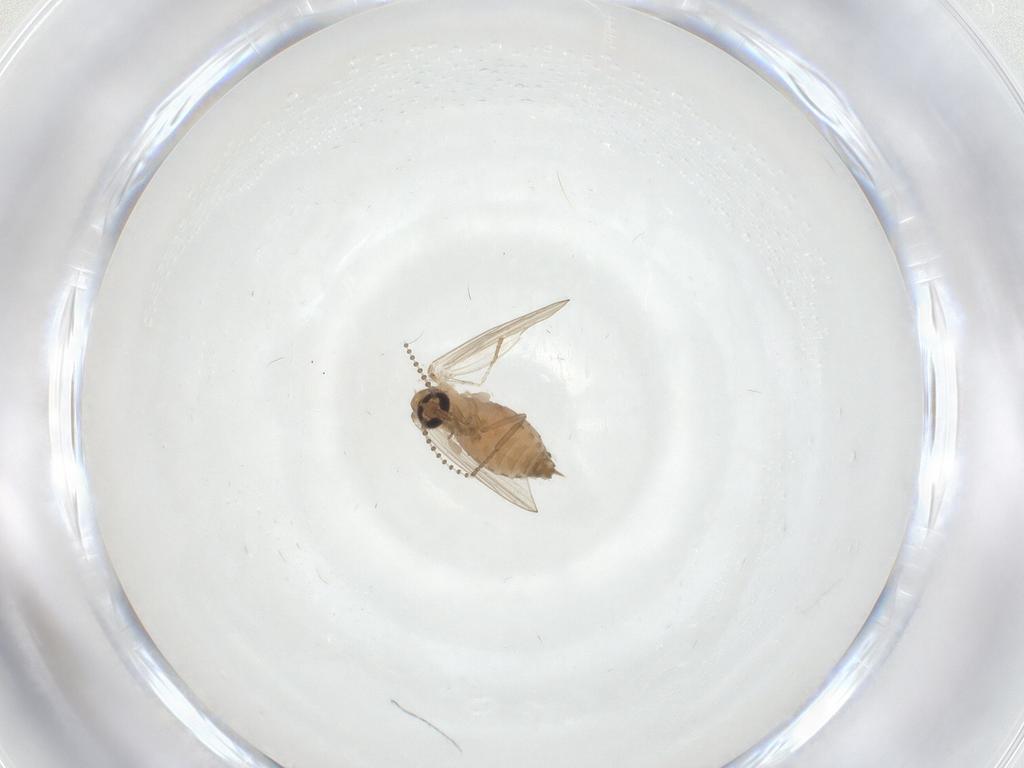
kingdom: Animalia
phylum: Arthropoda
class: Insecta
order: Diptera
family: Psychodidae
